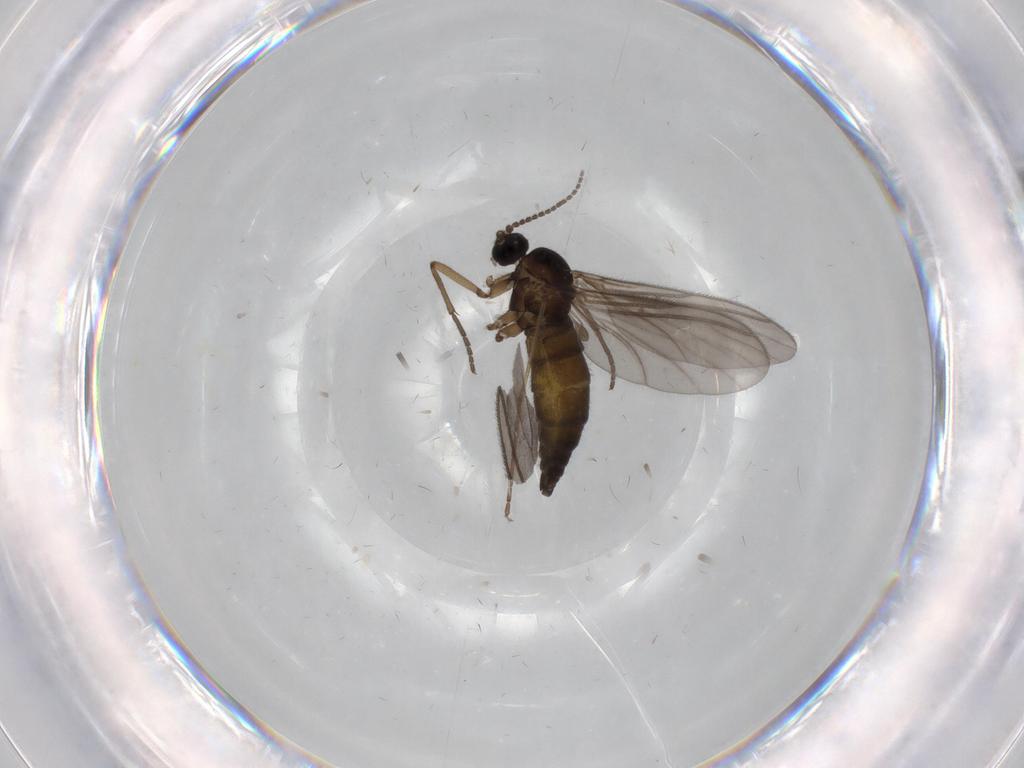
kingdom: Animalia
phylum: Arthropoda
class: Insecta
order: Diptera
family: Sciaridae
